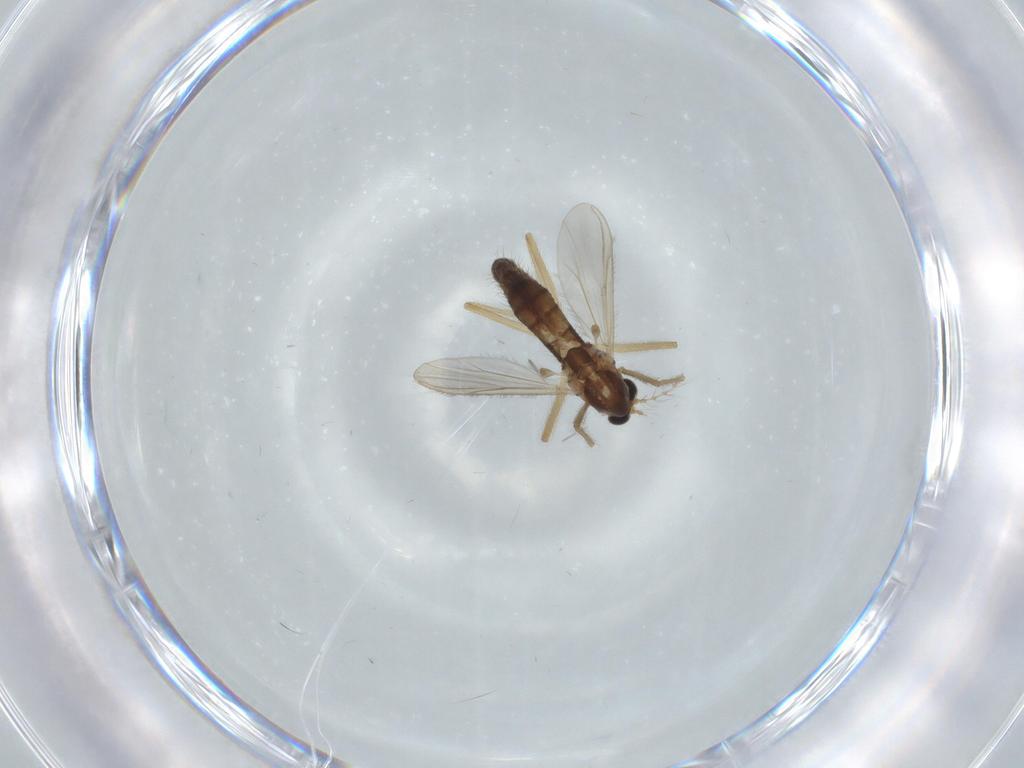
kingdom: Animalia
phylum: Arthropoda
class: Insecta
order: Diptera
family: Chironomidae
